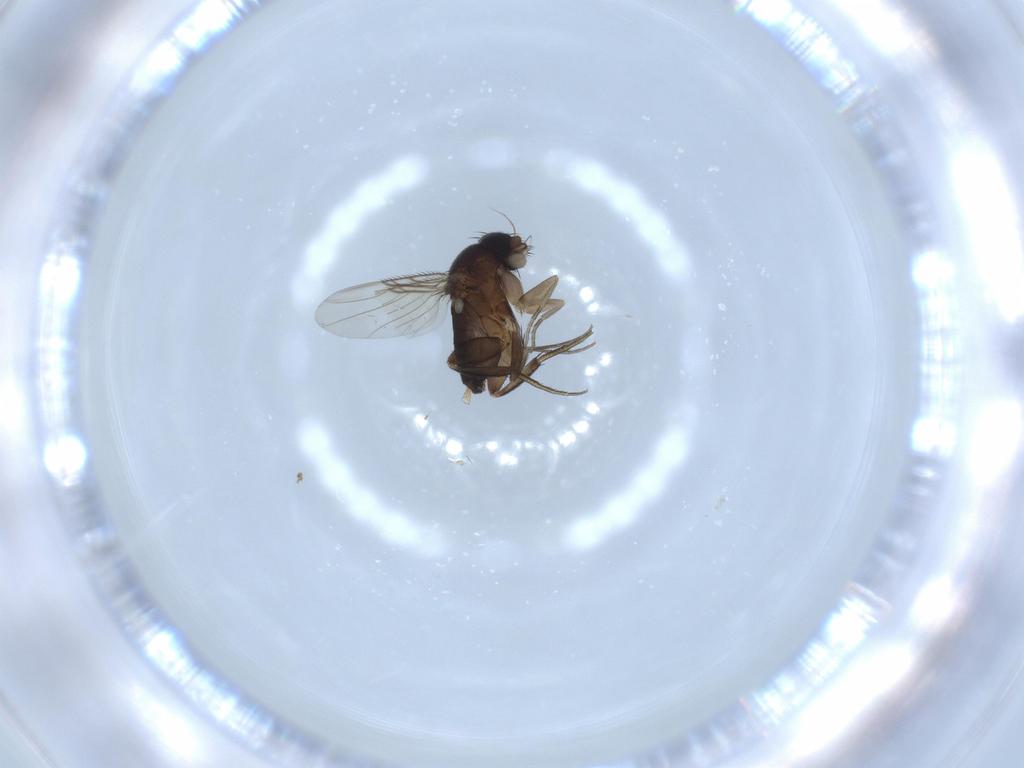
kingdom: Animalia
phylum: Arthropoda
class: Insecta
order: Diptera
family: Phoridae
